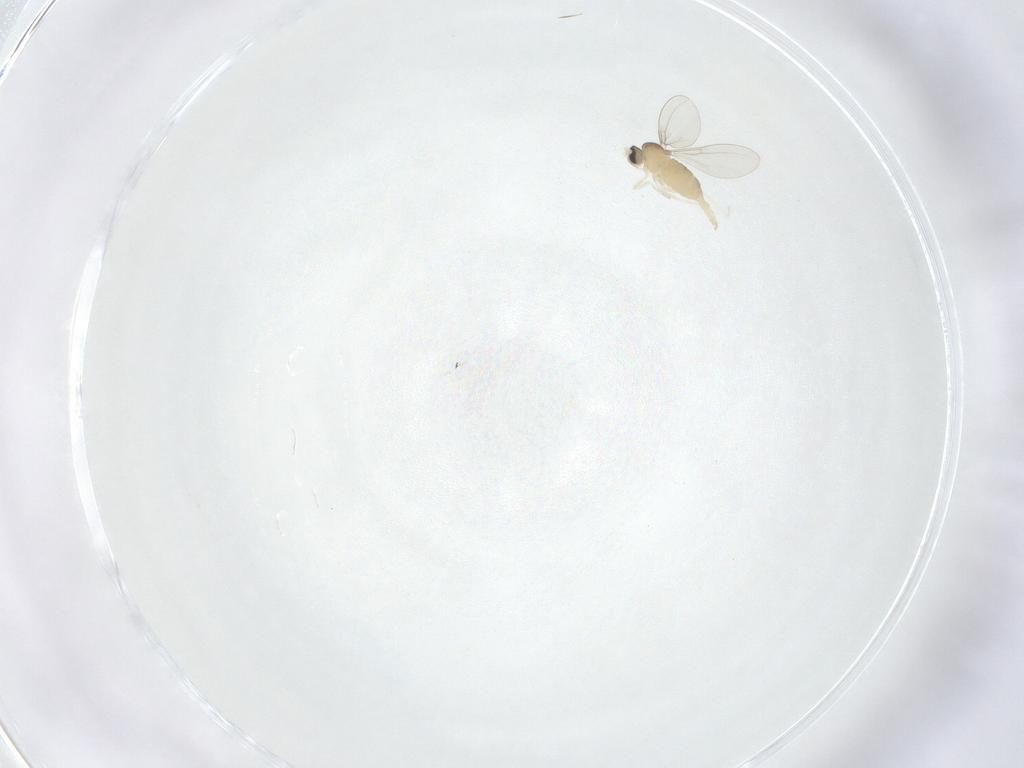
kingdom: Animalia
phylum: Arthropoda
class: Insecta
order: Diptera
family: Cecidomyiidae
